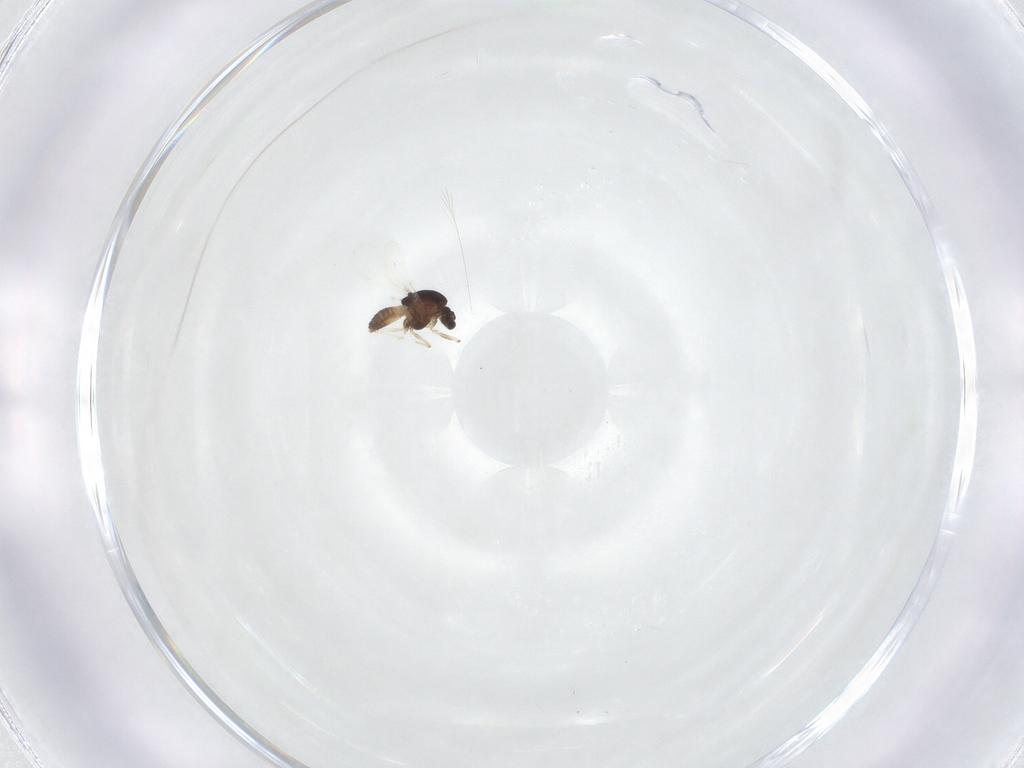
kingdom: Animalia
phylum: Arthropoda
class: Insecta
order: Diptera
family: Chironomidae
